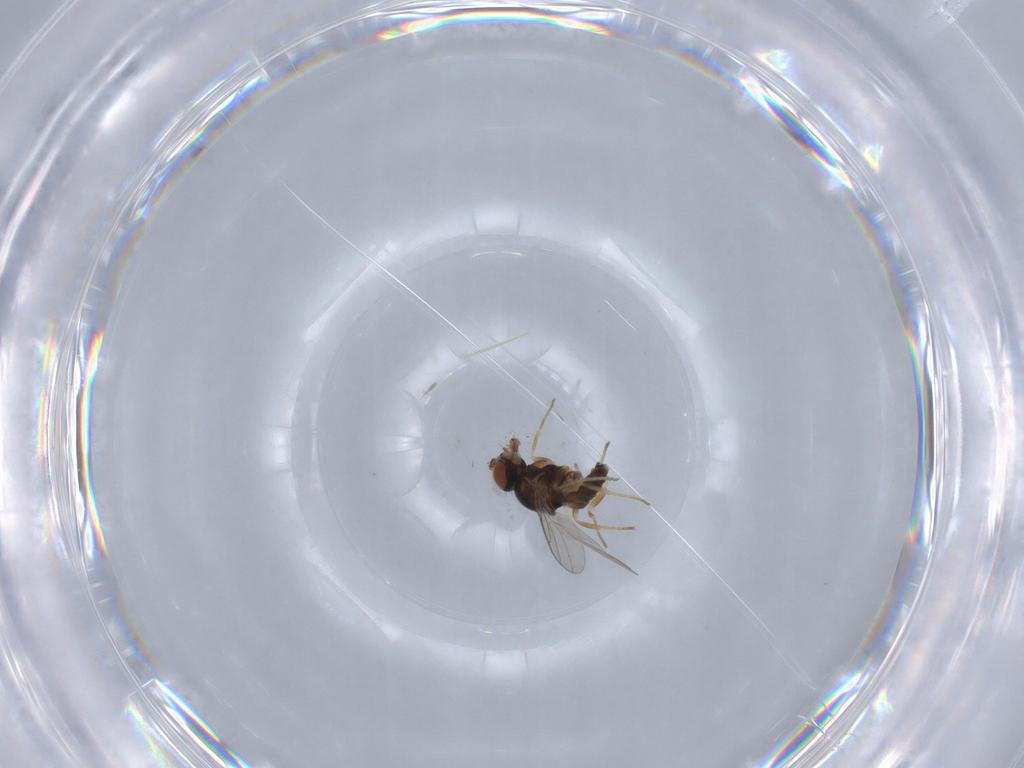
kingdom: Animalia
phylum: Arthropoda
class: Insecta
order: Diptera
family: Chloropidae
